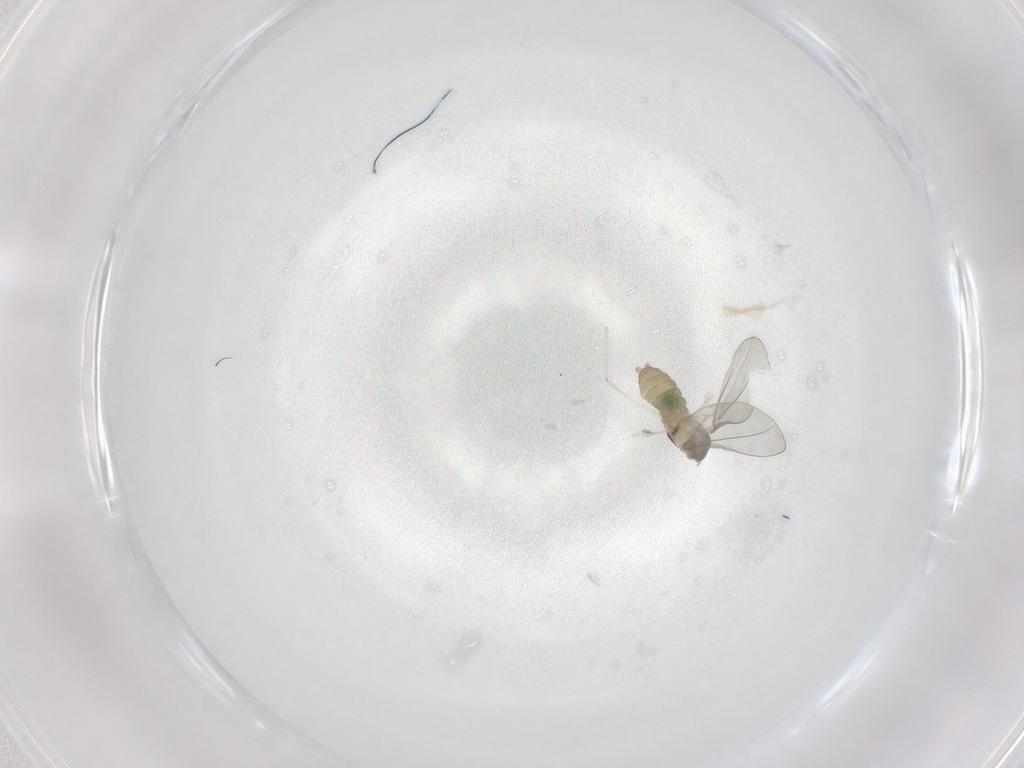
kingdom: Animalia
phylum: Arthropoda
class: Insecta
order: Diptera
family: Cecidomyiidae
